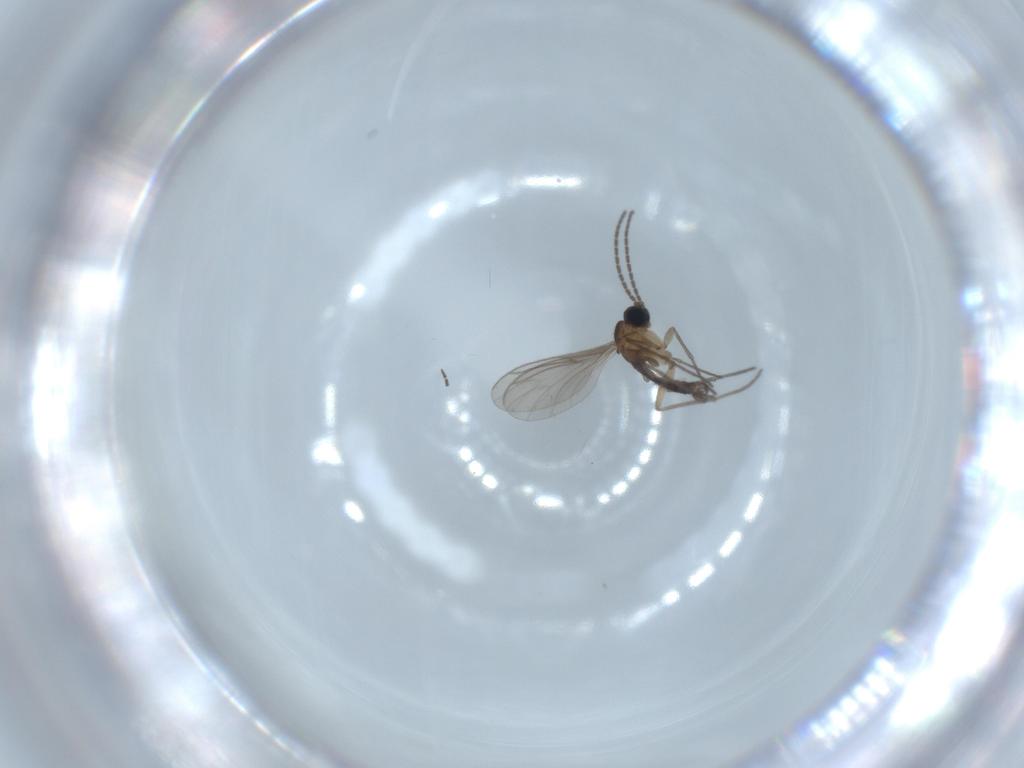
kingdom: Animalia
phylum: Arthropoda
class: Insecta
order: Diptera
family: Sciaridae
